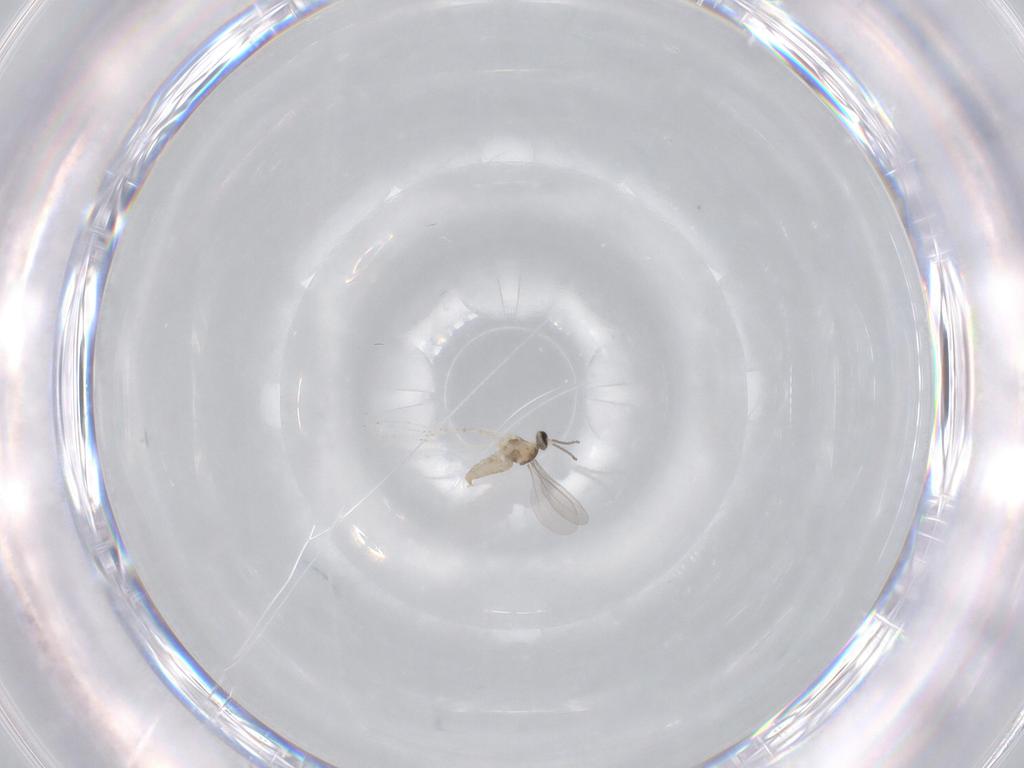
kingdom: Animalia
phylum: Arthropoda
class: Insecta
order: Diptera
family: Cecidomyiidae
